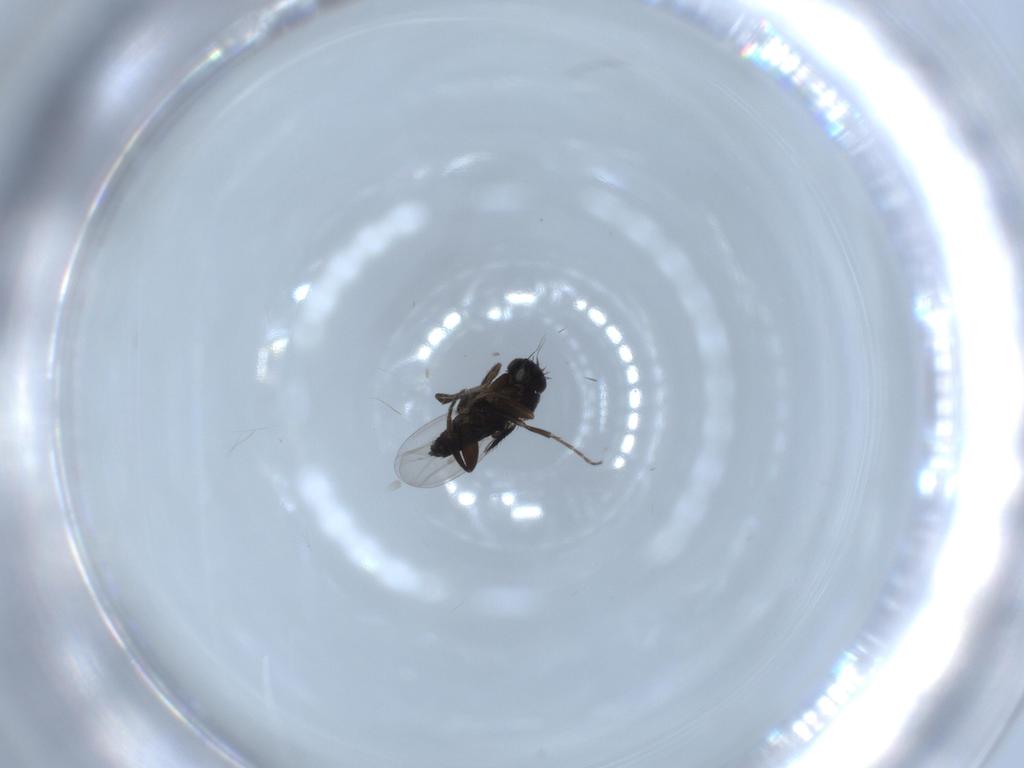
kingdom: Animalia
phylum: Arthropoda
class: Insecta
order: Diptera
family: Phoridae
